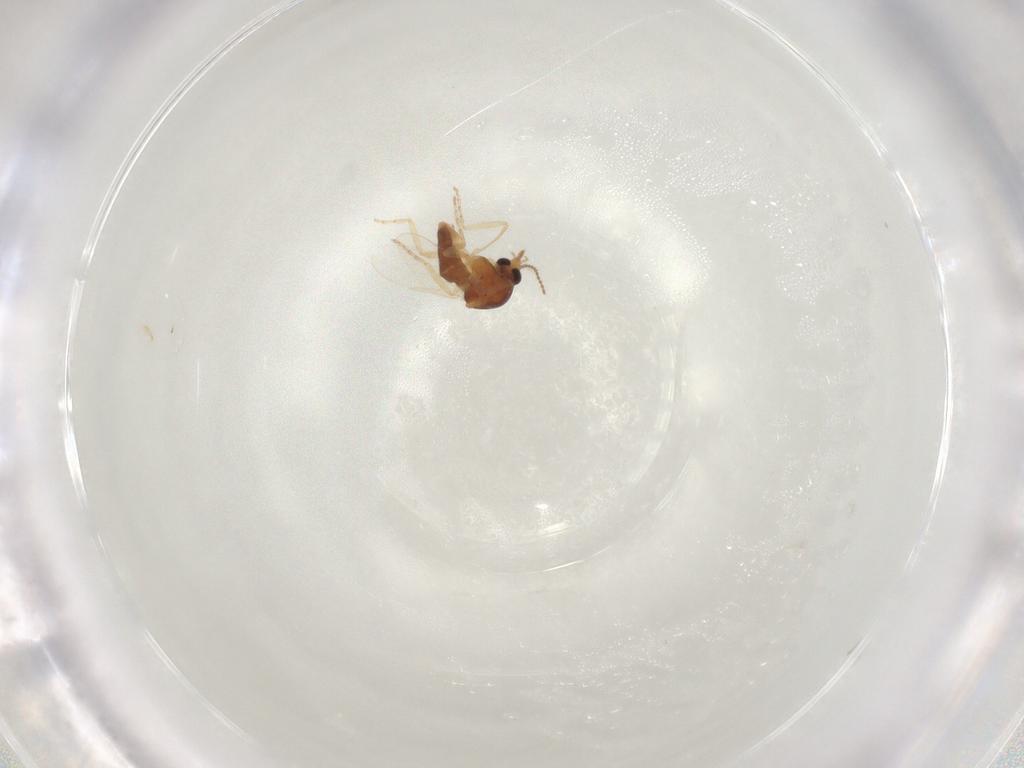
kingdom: Animalia
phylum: Arthropoda
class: Insecta
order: Diptera
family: Ceratopogonidae
